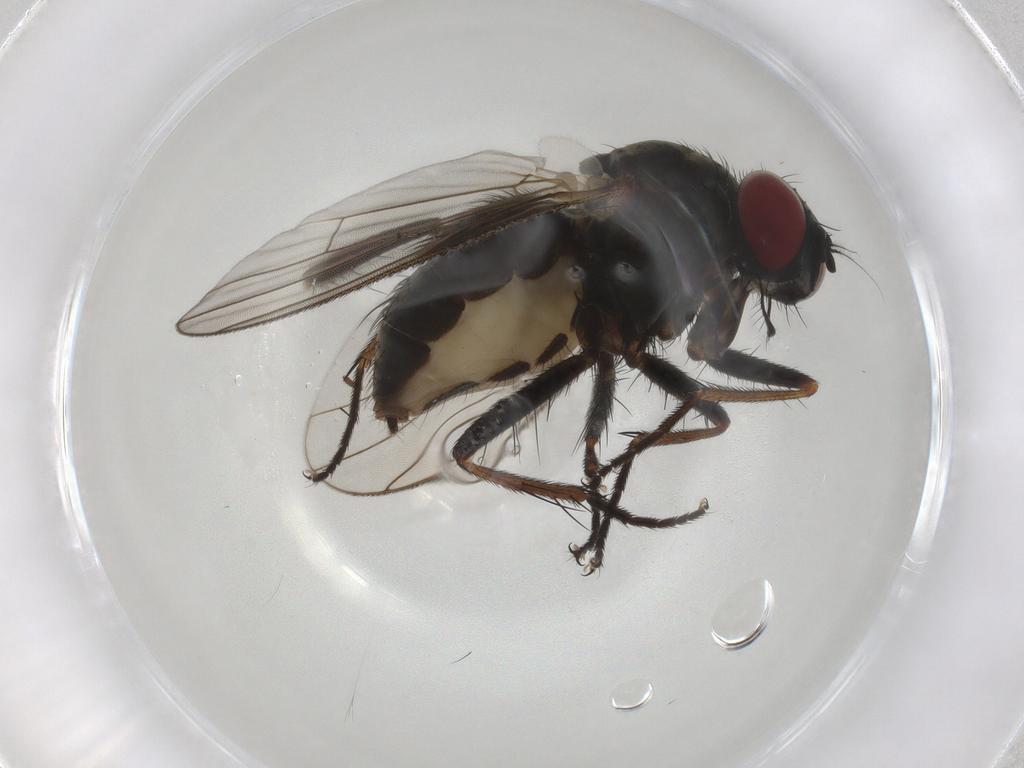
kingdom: Animalia
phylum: Arthropoda
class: Insecta
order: Diptera
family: Muscidae
